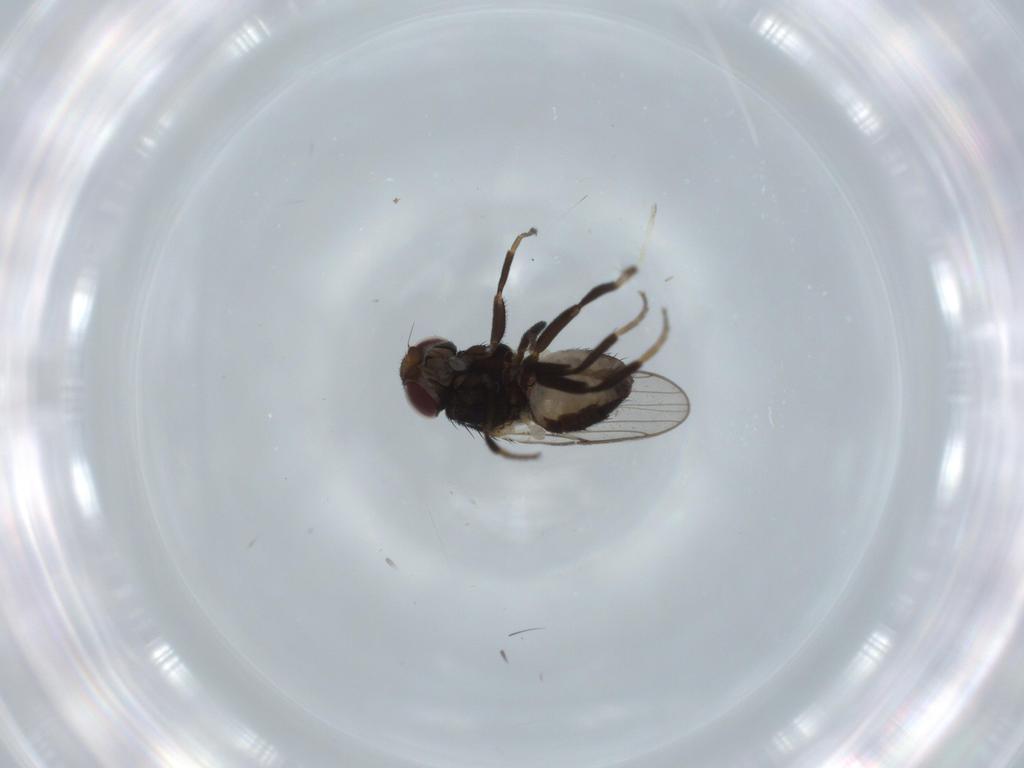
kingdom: Animalia
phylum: Arthropoda
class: Insecta
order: Diptera
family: Chloropidae
